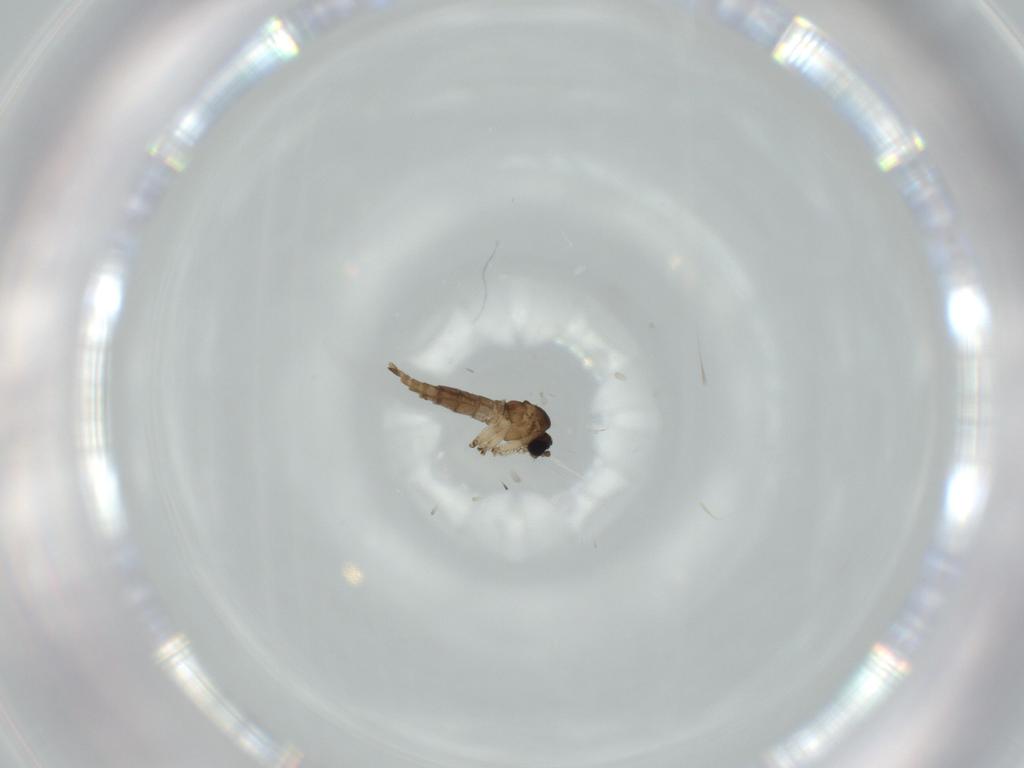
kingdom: Animalia
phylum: Arthropoda
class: Insecta
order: Diptera
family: Sciaridae
